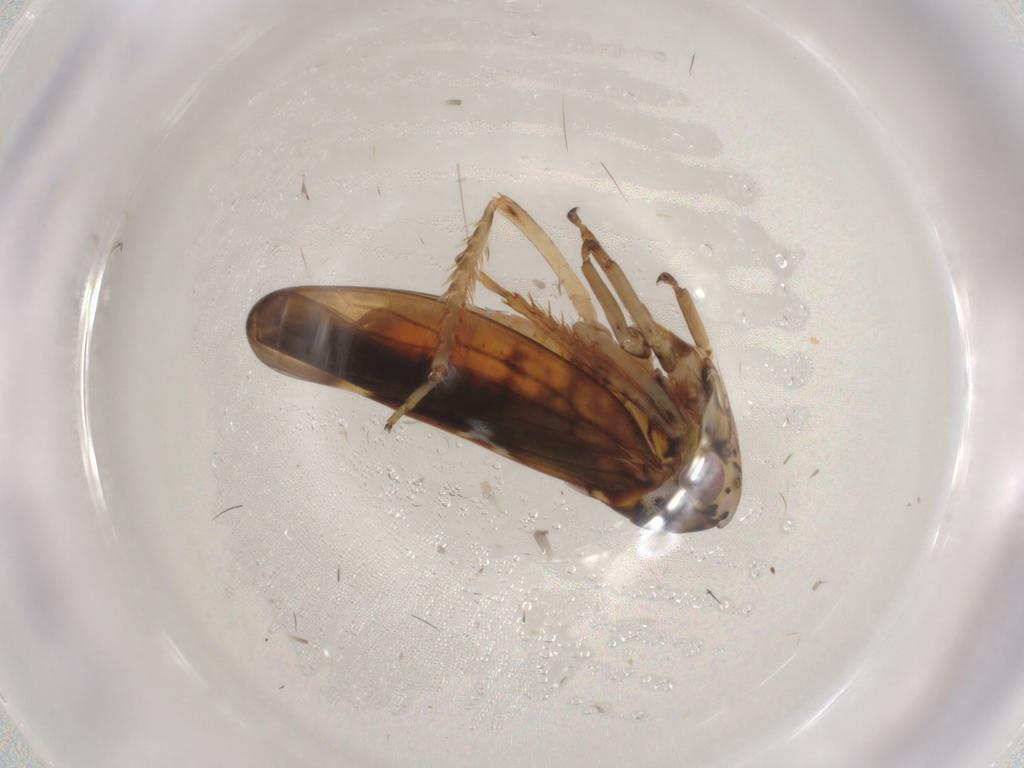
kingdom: Animalia
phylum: Arthropoda
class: Insecta
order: Hemiptera
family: Cicadellidae
